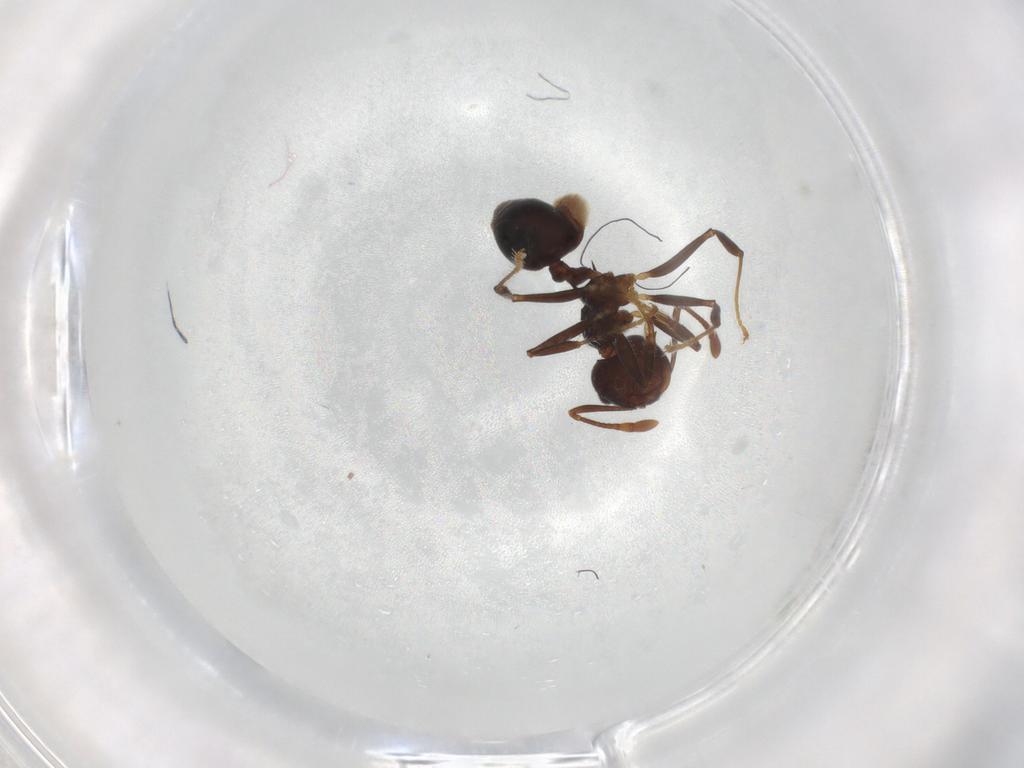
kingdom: Animalia
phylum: Arthropoda
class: Insecta
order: Hymenoptera
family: Formicidae
